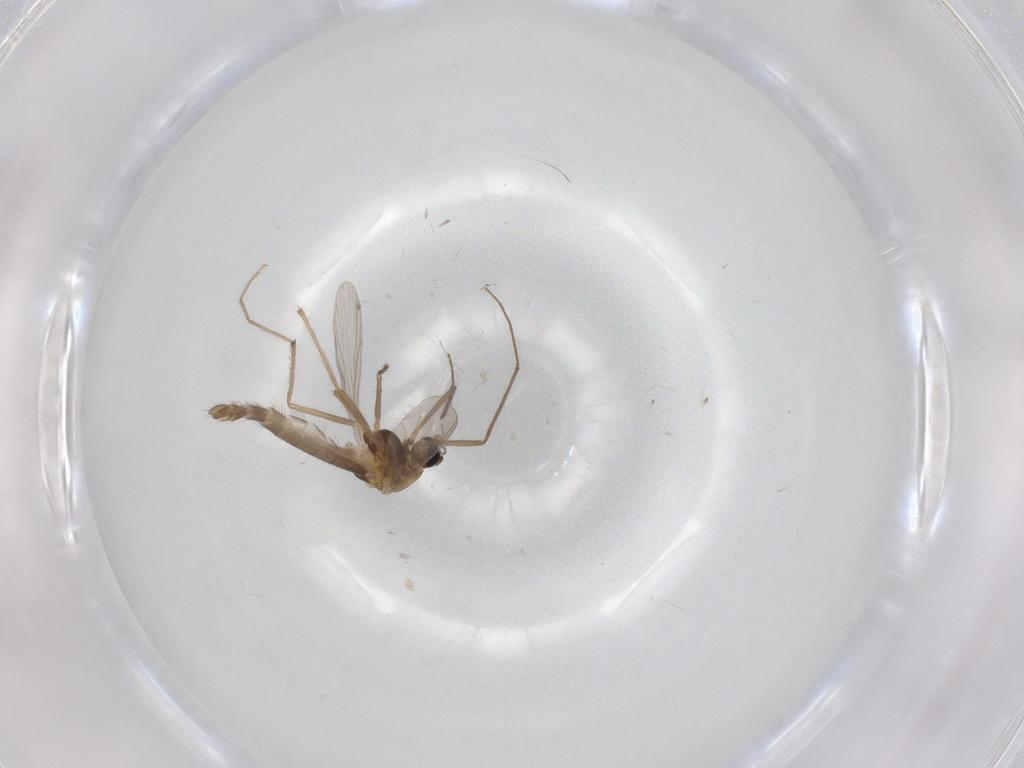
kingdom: Animalia
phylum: Arthropoda
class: Insecta
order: Diptera
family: Chironomidae
